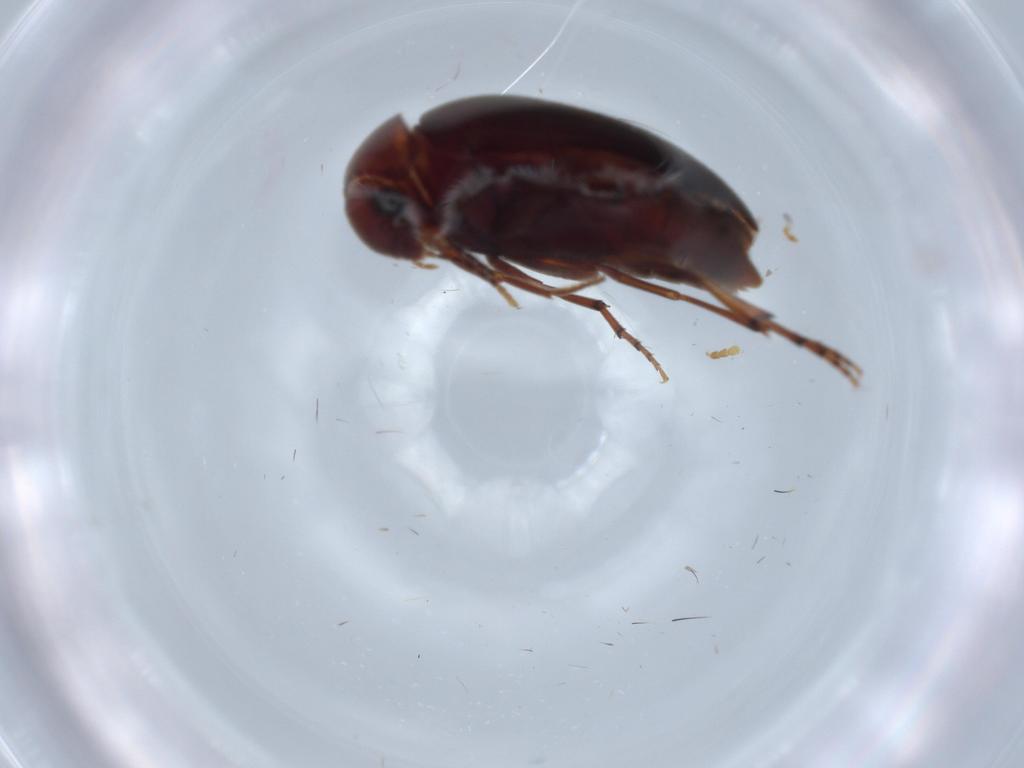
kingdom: Animalia
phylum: Arthropoda
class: Insecta
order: Coleoptera
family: Eucinetidae
